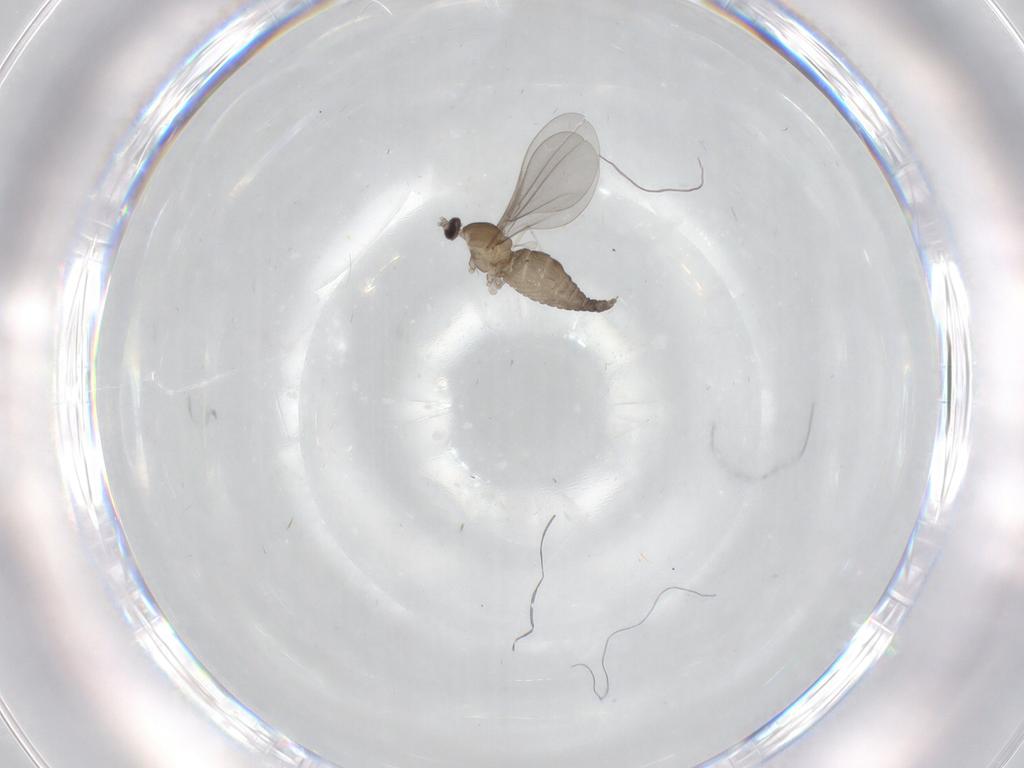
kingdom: Animalia
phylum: Arthropoda
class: Insecta
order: Diptera
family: Cecidomyiidae
